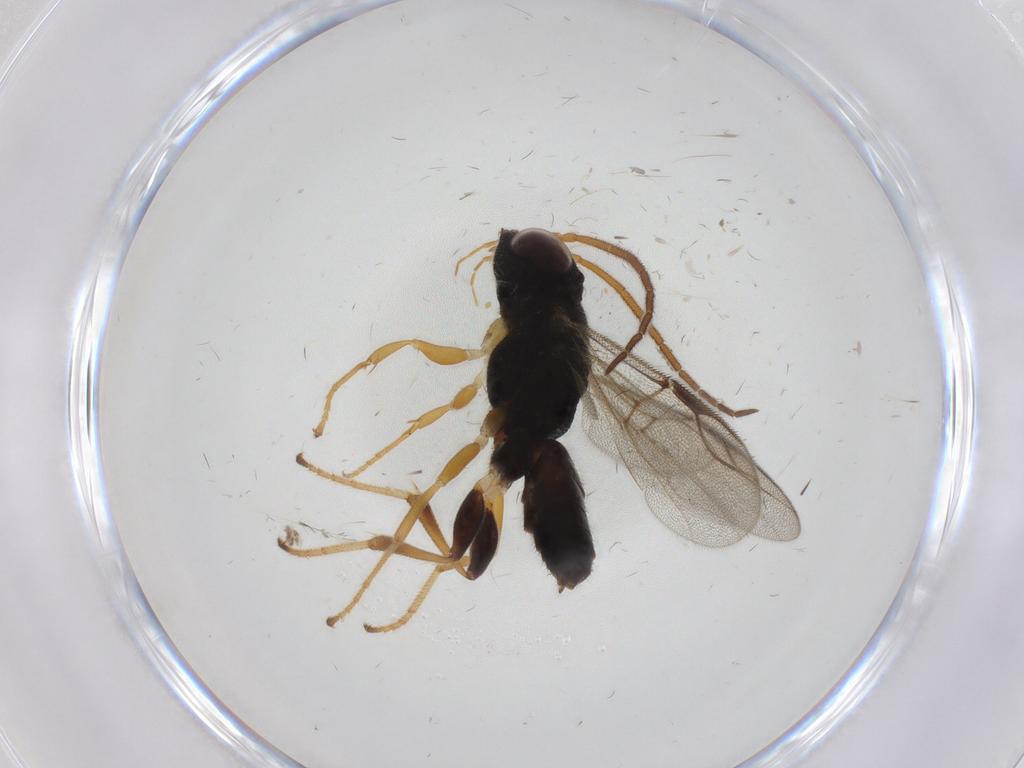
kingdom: Animalia
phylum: Arthropoda
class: Insecta
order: Hymenoptera
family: Dryinidae
